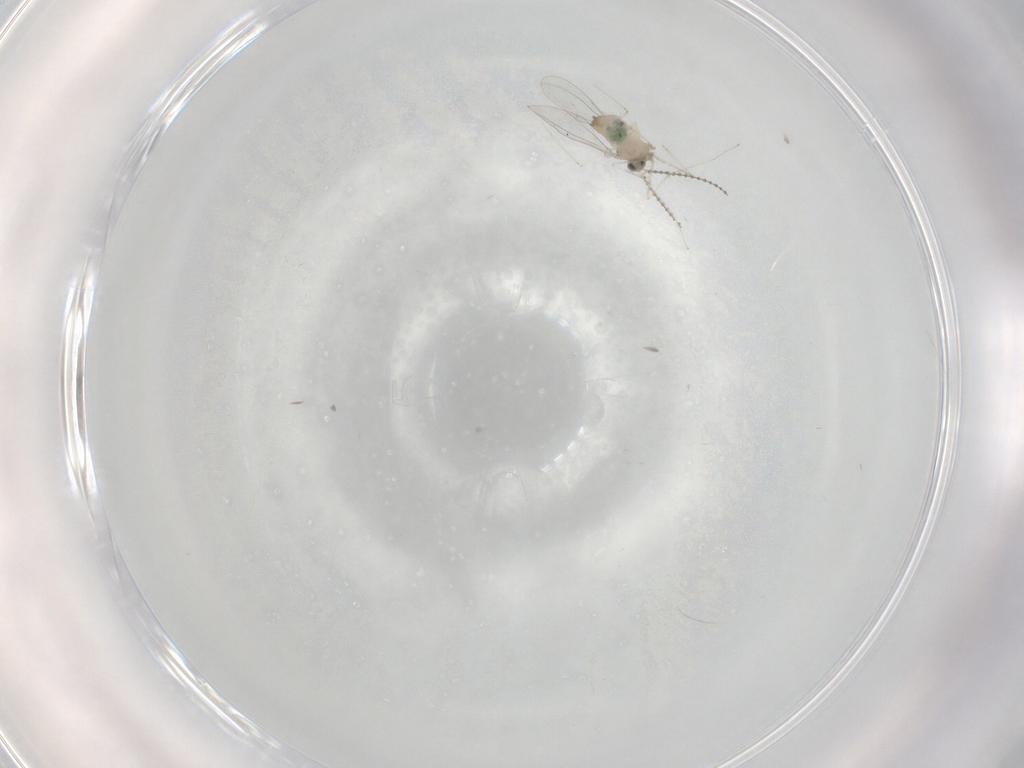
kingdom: Animalia
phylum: Arthropoda
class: Insecta
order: Diptera
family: Cecidomyiidae
